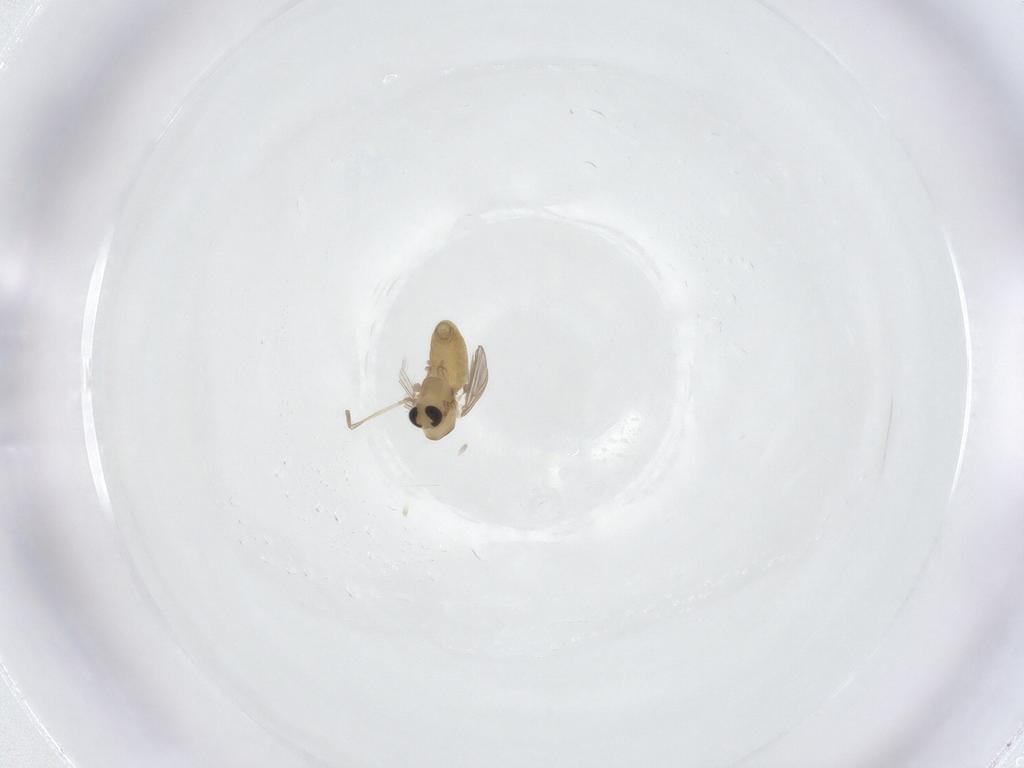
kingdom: Animalia
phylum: Arthropoda
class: Insecta
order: Diptera
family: Chironomidae
